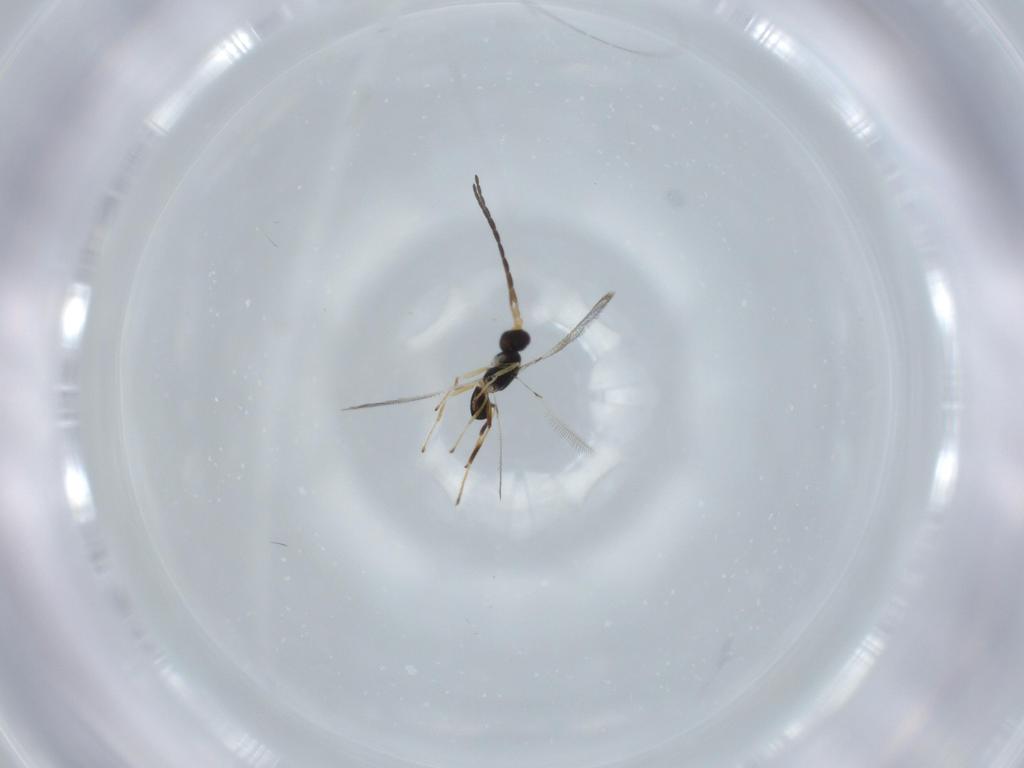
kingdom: Animalia
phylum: Arthropoda
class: Insecta
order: Hymenoptera
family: Mymaridae
